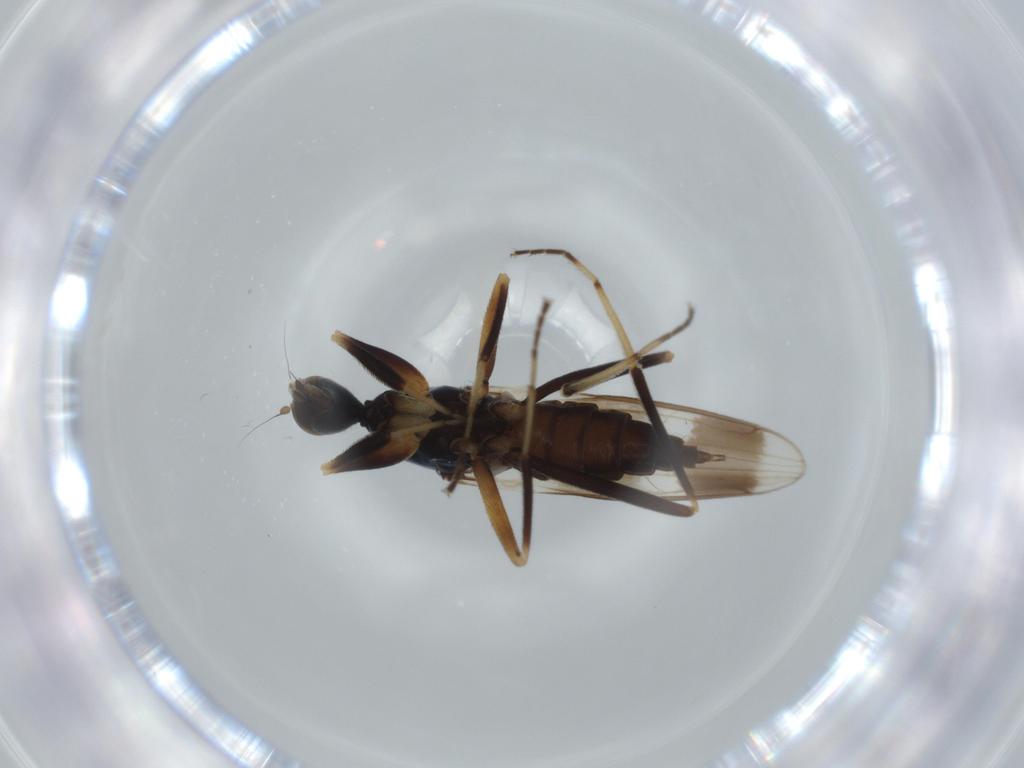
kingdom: Animalia
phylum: Arthropoda
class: Insecta
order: Diptera
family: Hybotidae
